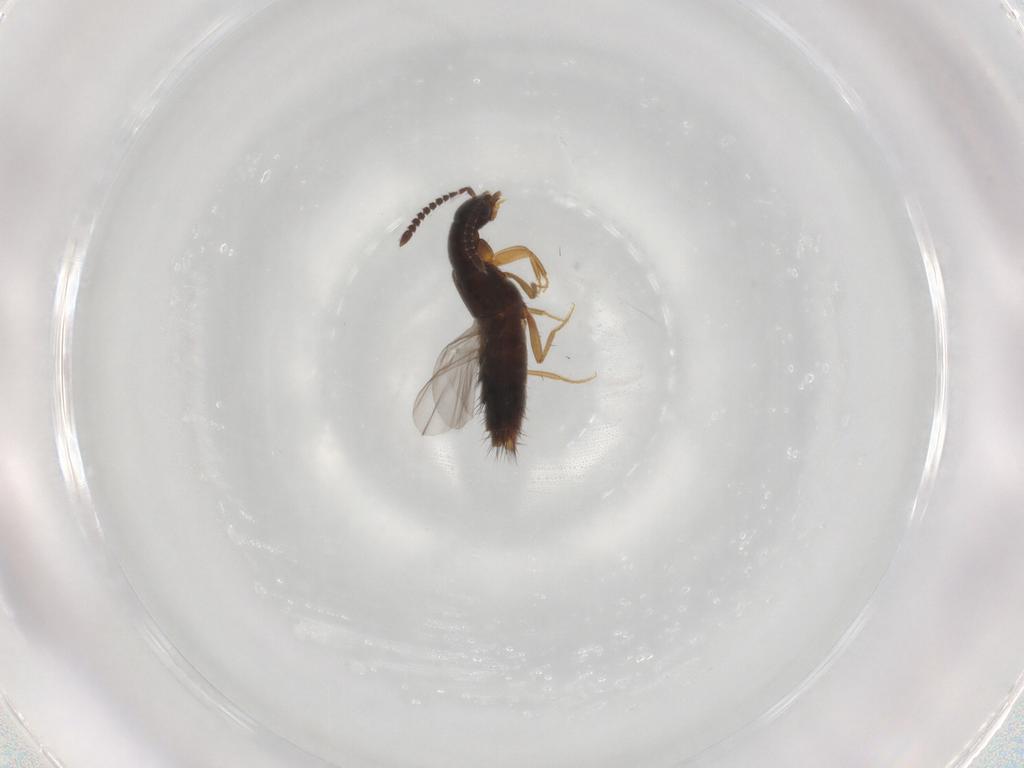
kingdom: Animalia
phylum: Arthropoda
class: Insecta
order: Coleoptera
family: Staphylinidae
